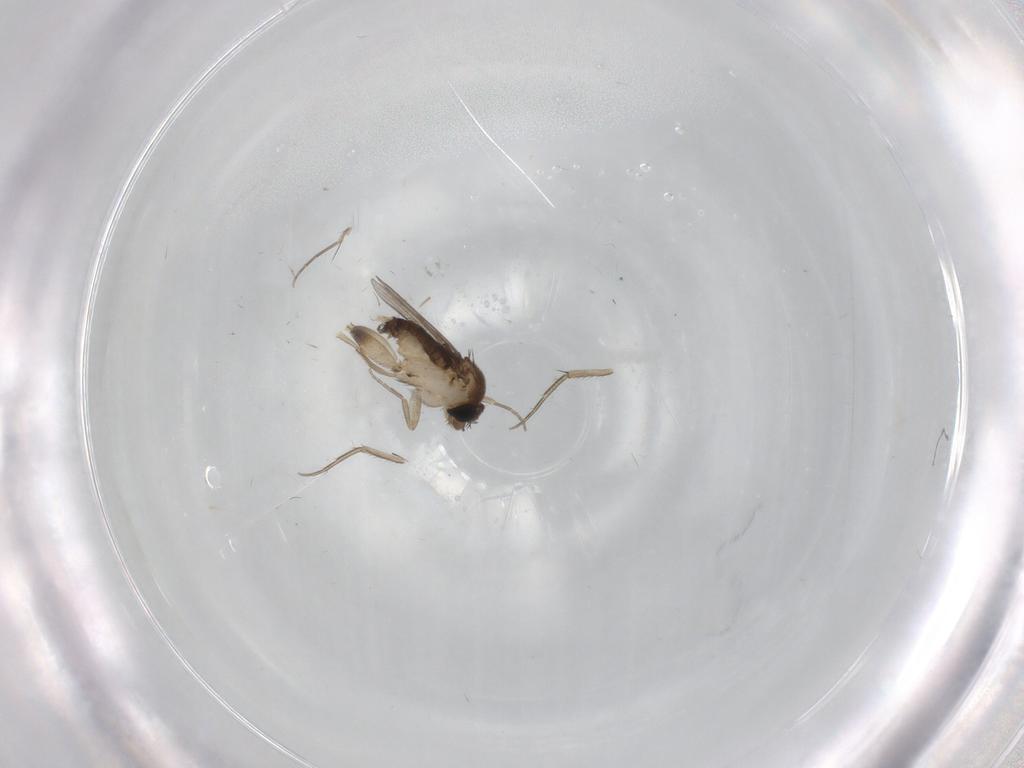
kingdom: Animalia
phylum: Arthropoda
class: Insecta
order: Diptera
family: Phoridae
